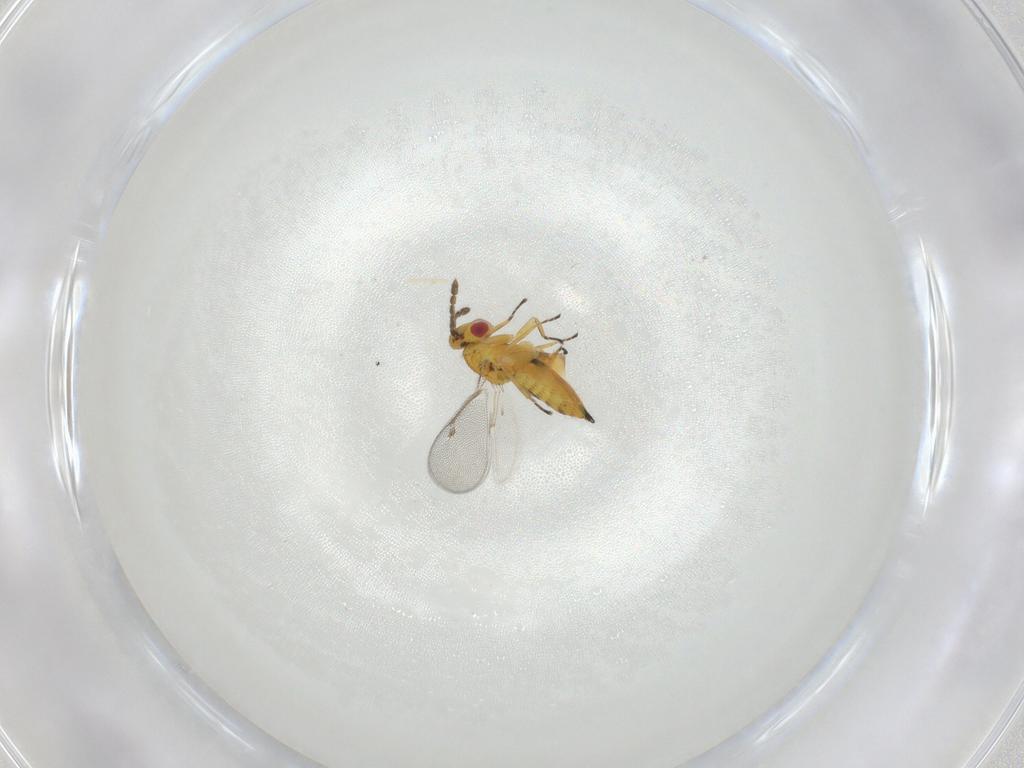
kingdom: Animalia
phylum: Arthropoda
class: Insecta
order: Hymenoptera
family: Eulophidae
